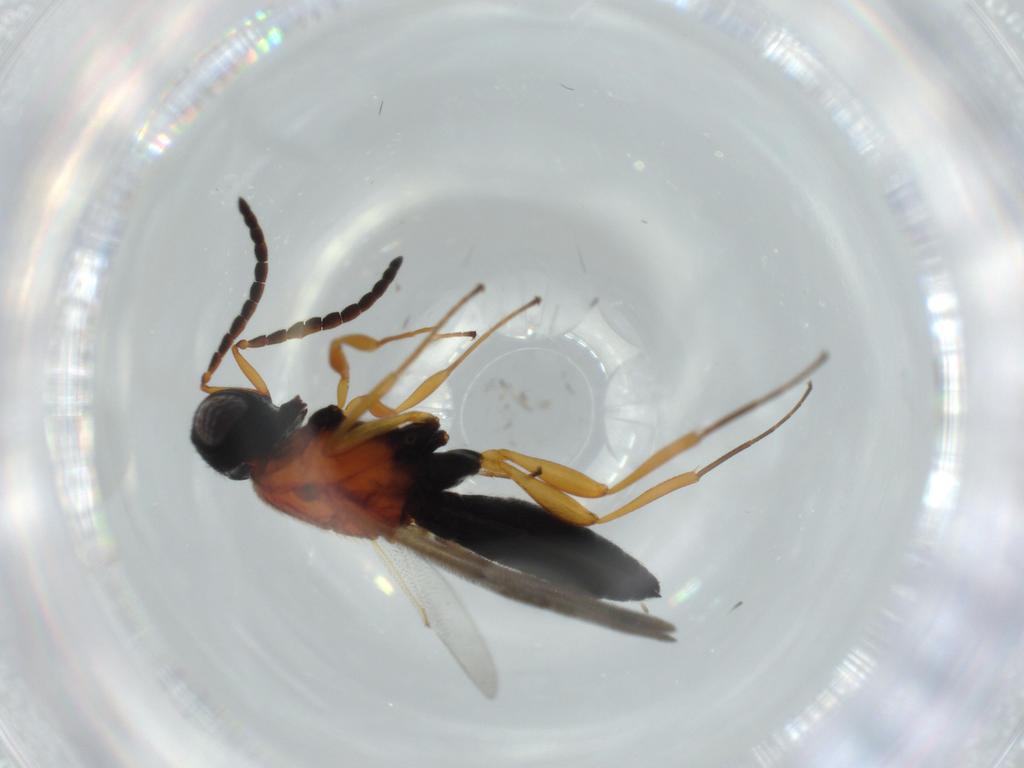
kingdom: Animalia
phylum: Arthropoda
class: Insecta
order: Hymenoptera
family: Scelionidae
